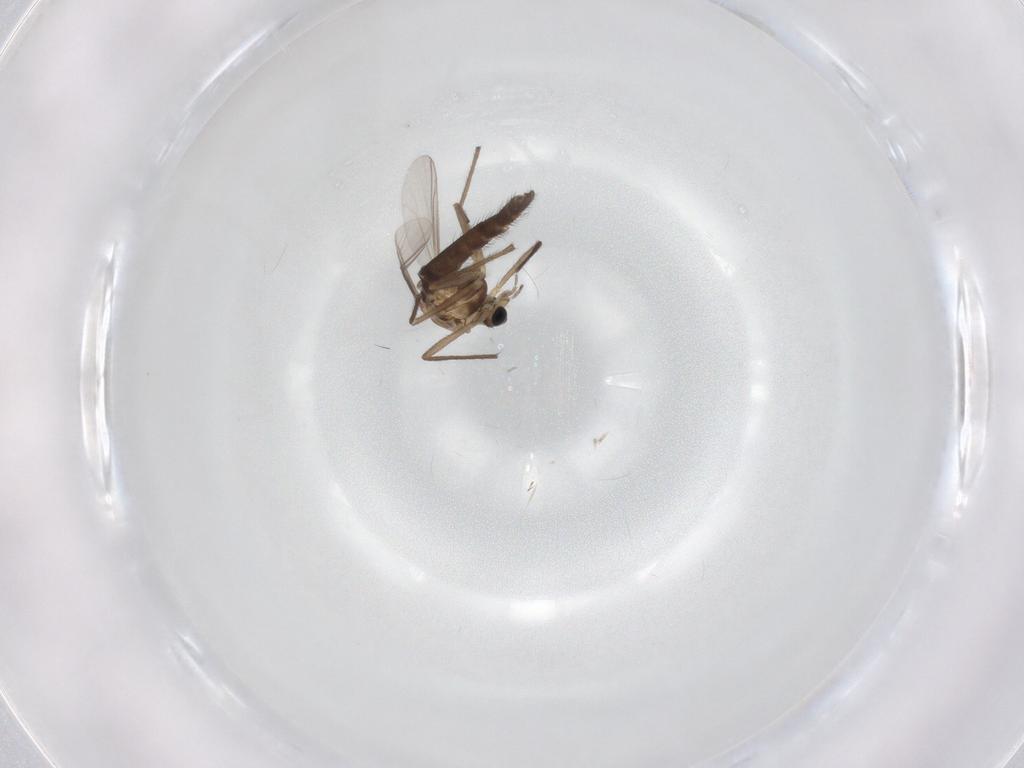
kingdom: Animalia
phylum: Arthropoda
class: Insecta
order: Diptera
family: Chironomidae
